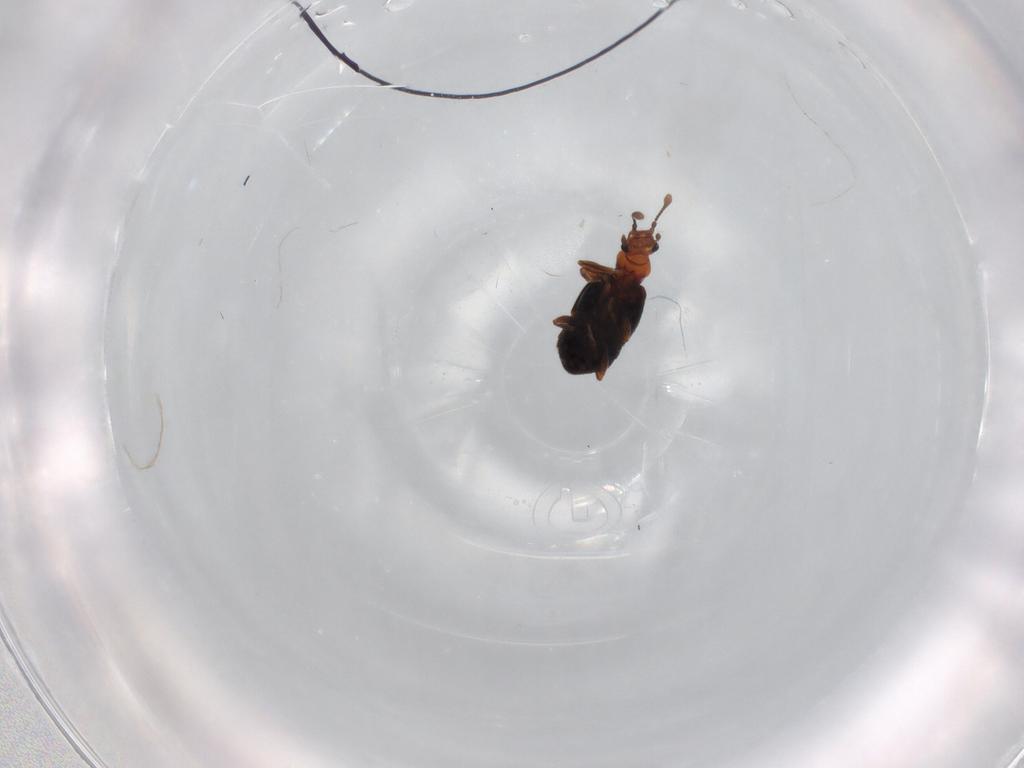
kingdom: Animalia
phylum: Arthropoda
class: Insecta
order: Coleoptera
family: Staphylinidae
